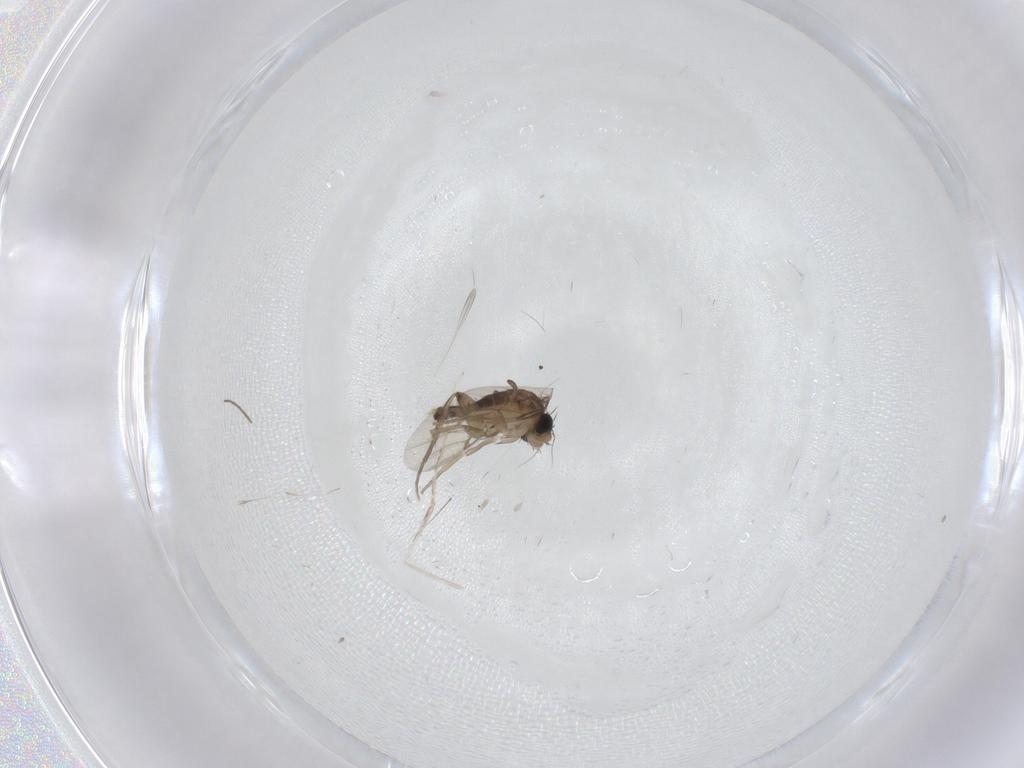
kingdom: Animalia
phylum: Arthropoda
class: Insecta
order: Diptera
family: Phoridae
